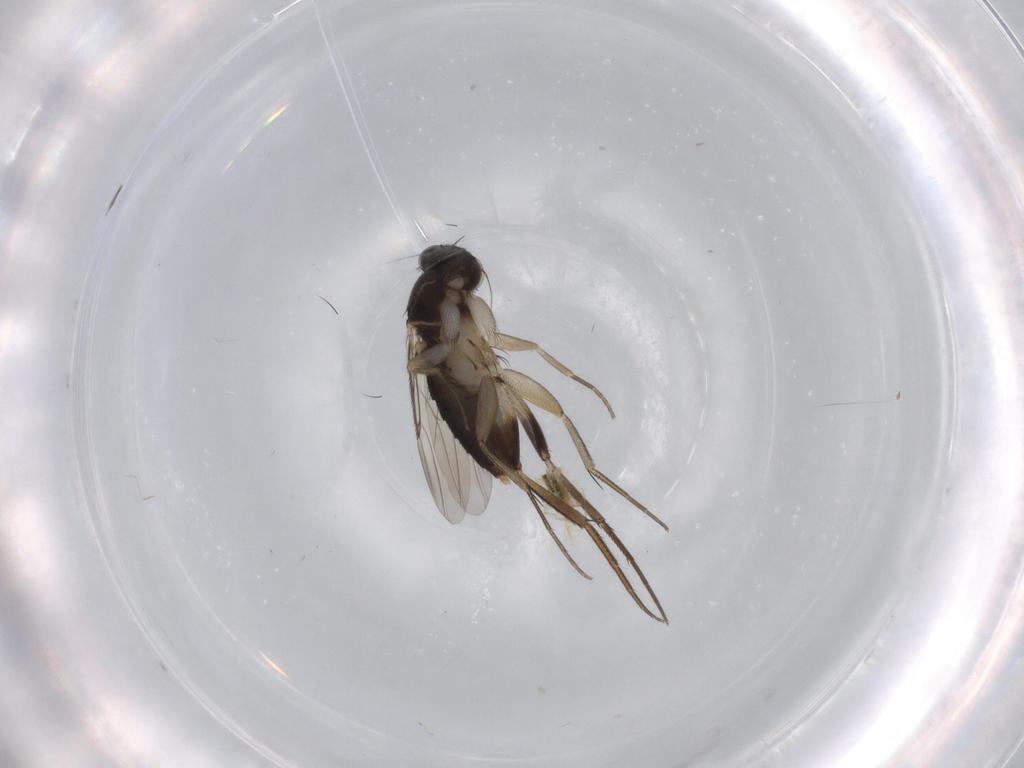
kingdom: Animalia
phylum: Arthropoda
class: Insecta
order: Diptera
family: Phoridae
